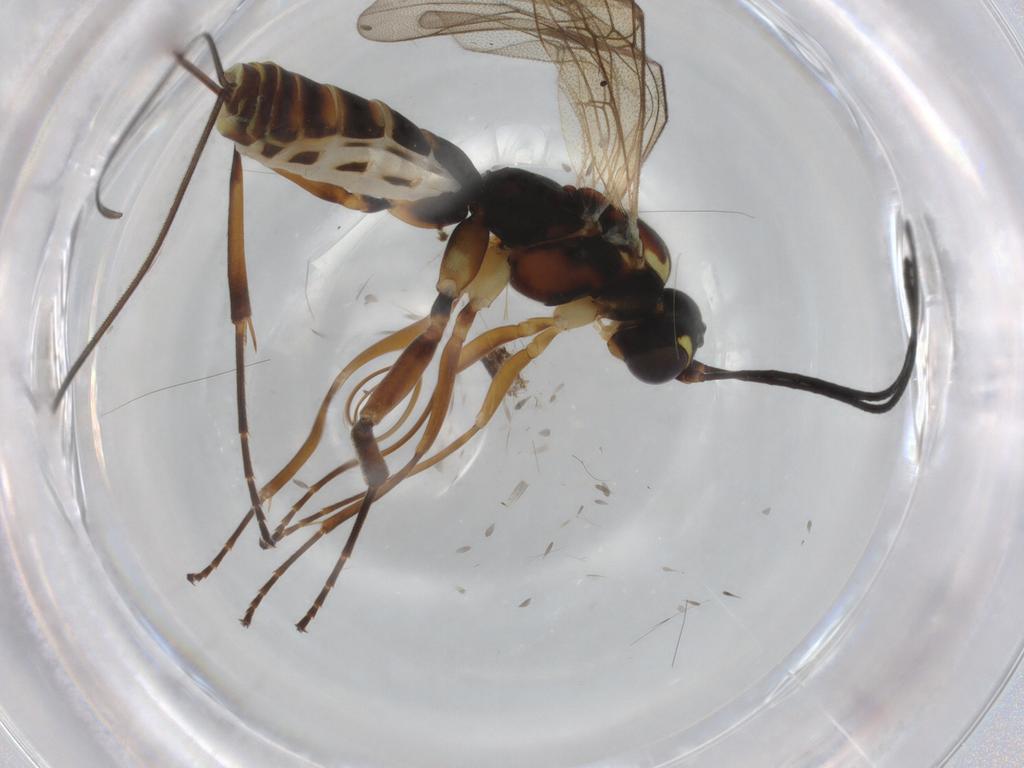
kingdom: Animalia
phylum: Arthropoda
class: Insecta
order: Hymenoptera
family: Ichneumonidae
